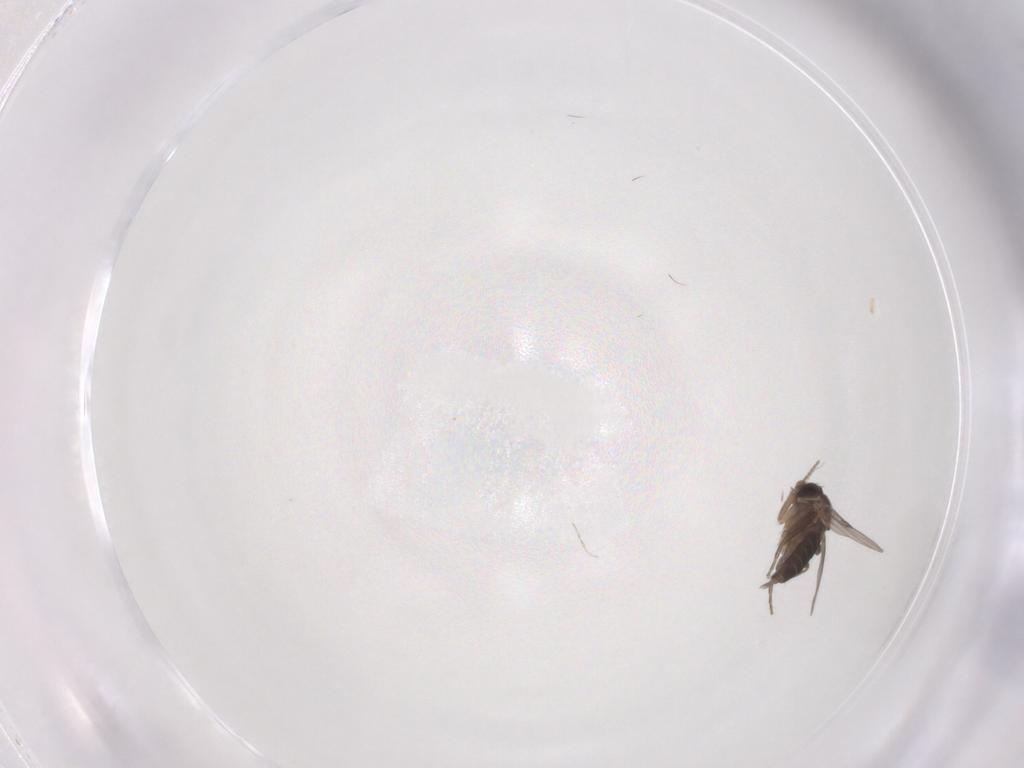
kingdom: Animalia
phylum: Arthropoda
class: Insecta
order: Diptera
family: Phoridae
